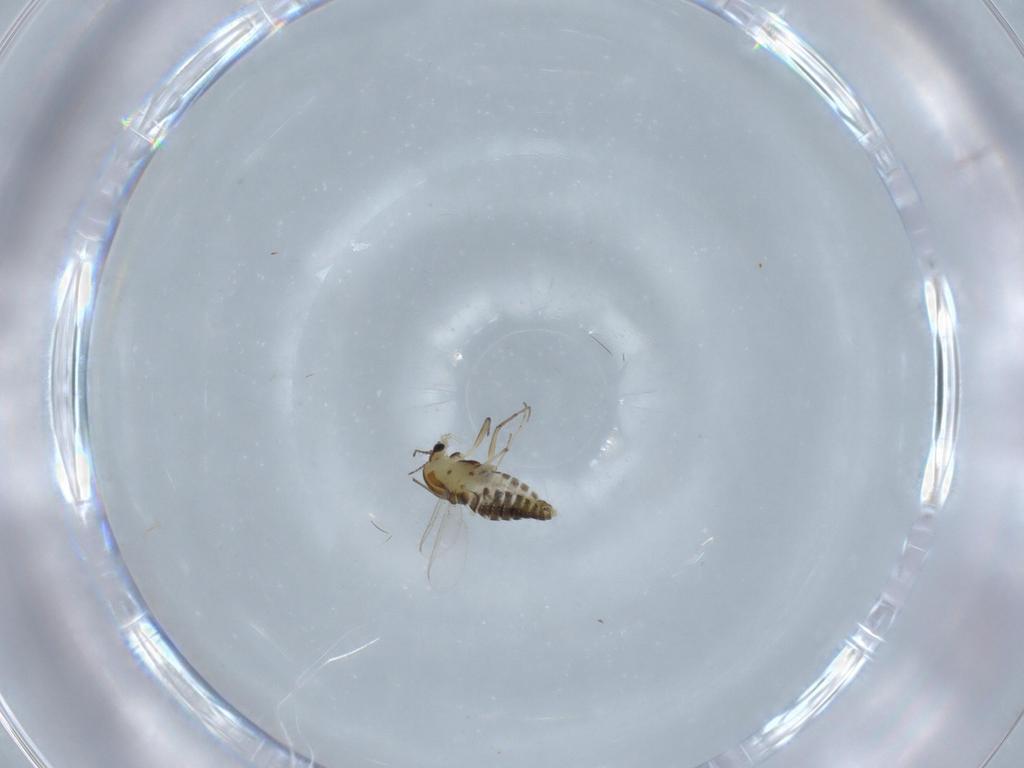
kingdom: Animalia
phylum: Arthropoda
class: Insecta
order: Diptera
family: Chironomidae
